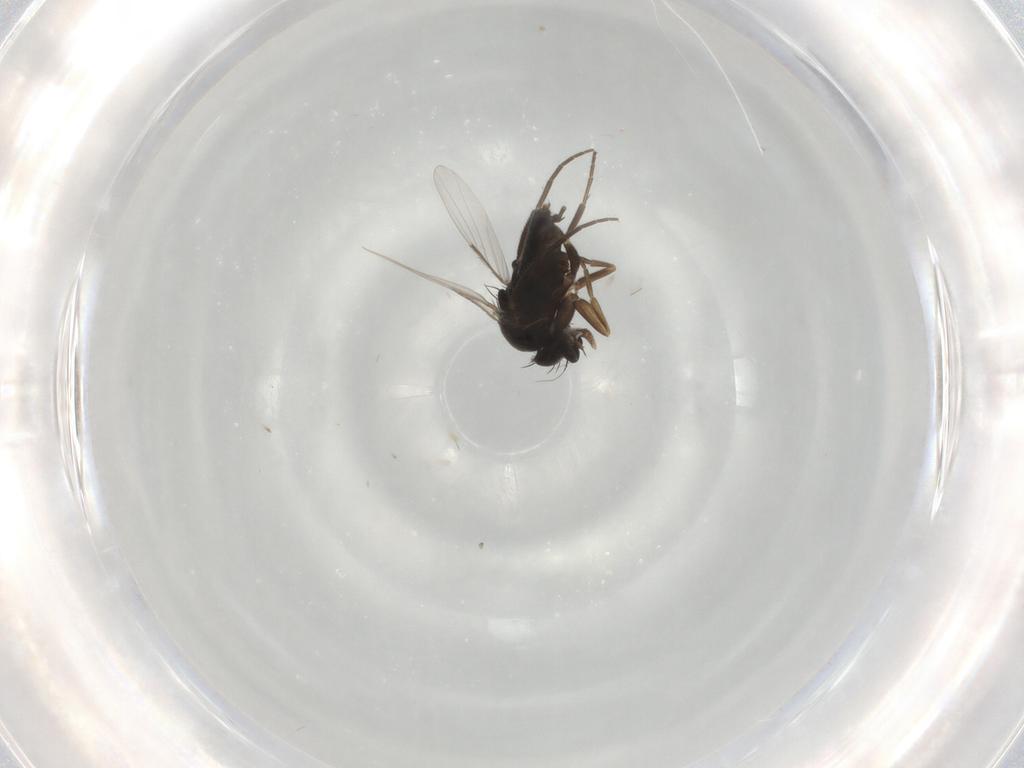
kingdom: Animalia
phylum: Arthropoda
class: Insecta
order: Diptera
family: Phoridae
